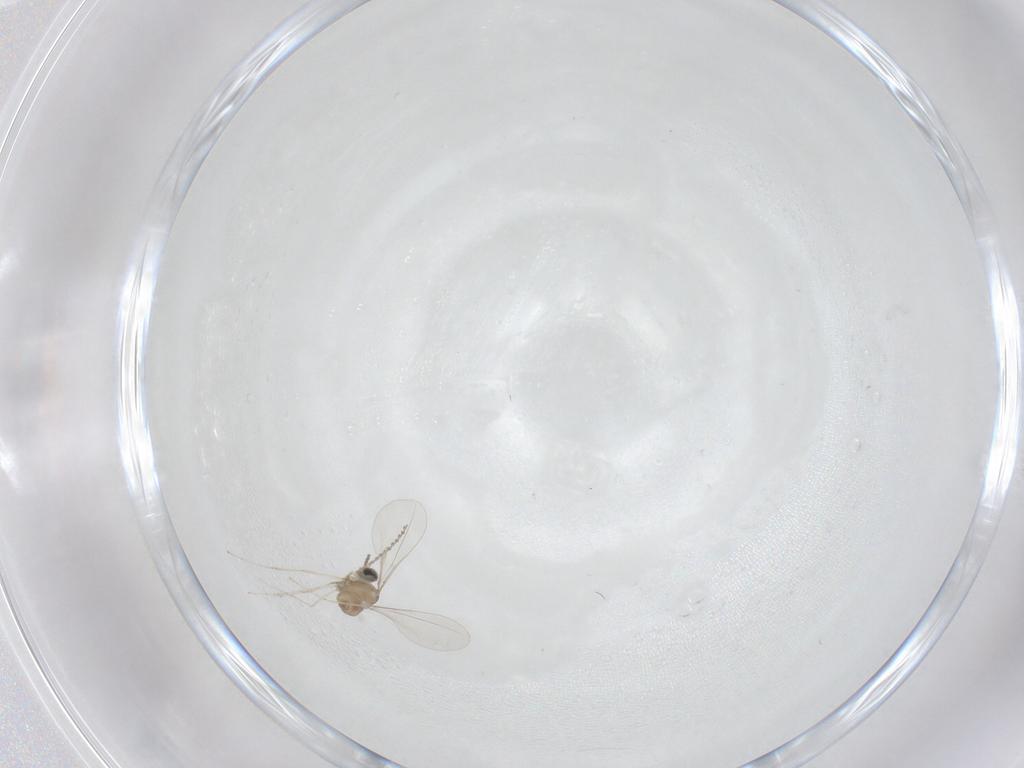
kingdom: Animalia
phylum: Arthropoda
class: Insecta
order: Diptera
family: Cecidomyiidae
